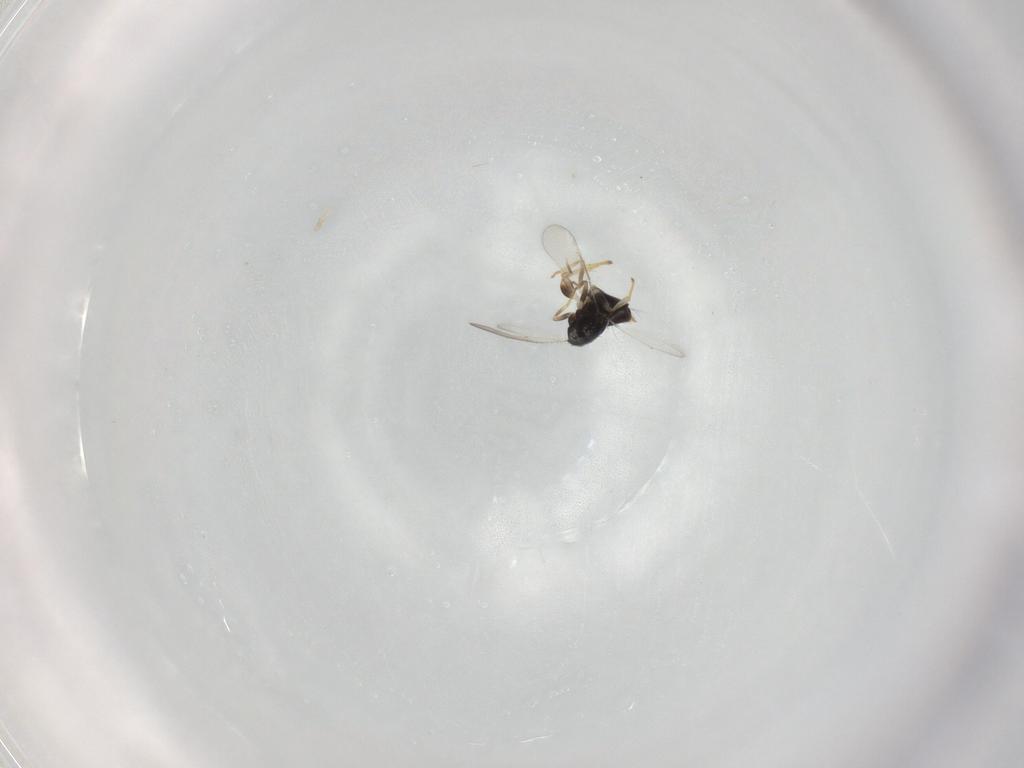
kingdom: Animalia
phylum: Arthropoda
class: Insecta
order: Hymenoptera
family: Aphelinidae
